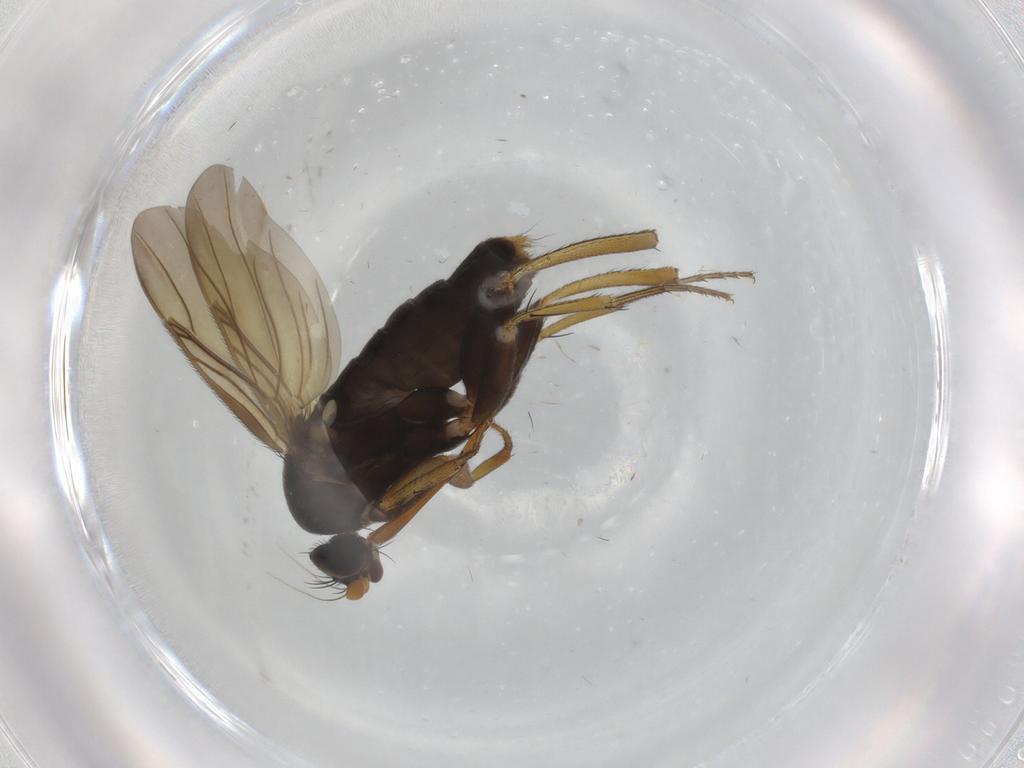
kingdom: Animalia
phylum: Arthropoda
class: Insecta
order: Diptera
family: Phoridae
